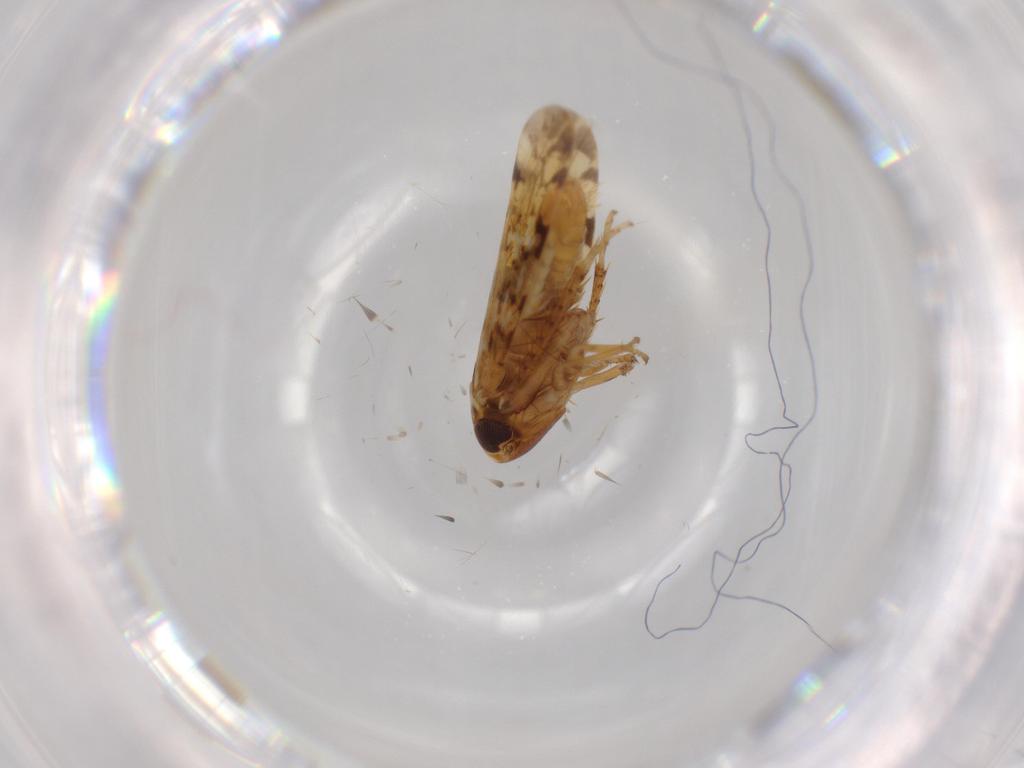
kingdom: Animalia
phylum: Arthropoda
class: Insecta
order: Hemiptera
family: Cicadellidae
